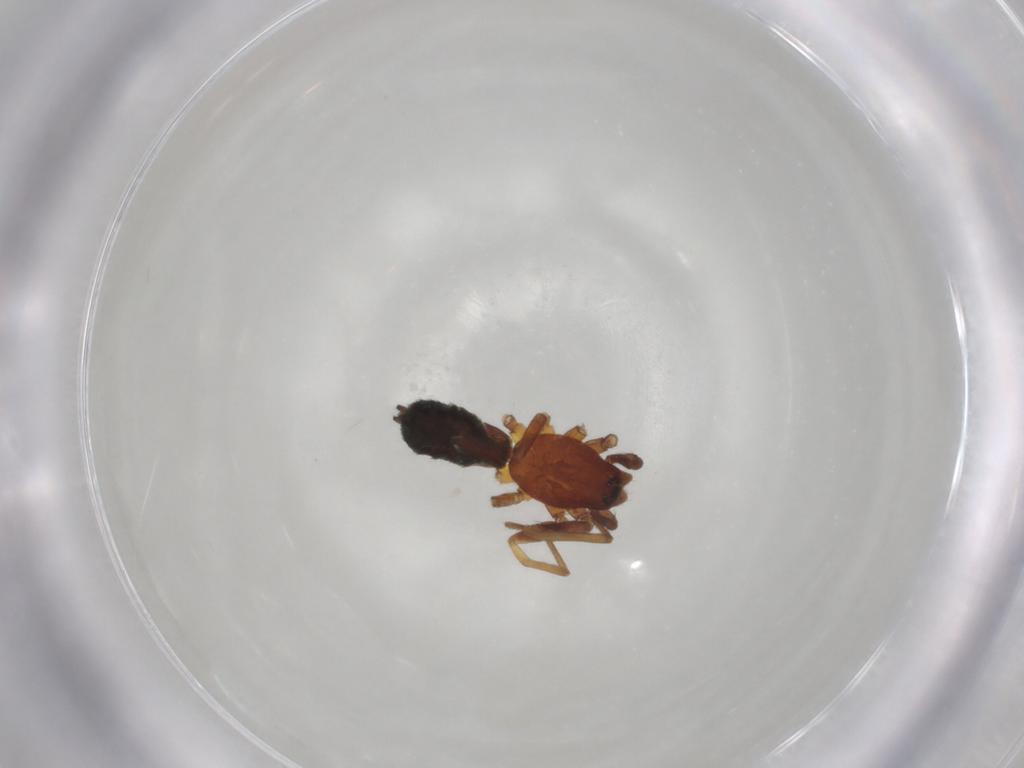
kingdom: Animalia
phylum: Arthropoda
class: Arachnida
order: Araneae
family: Gnaphosidae
